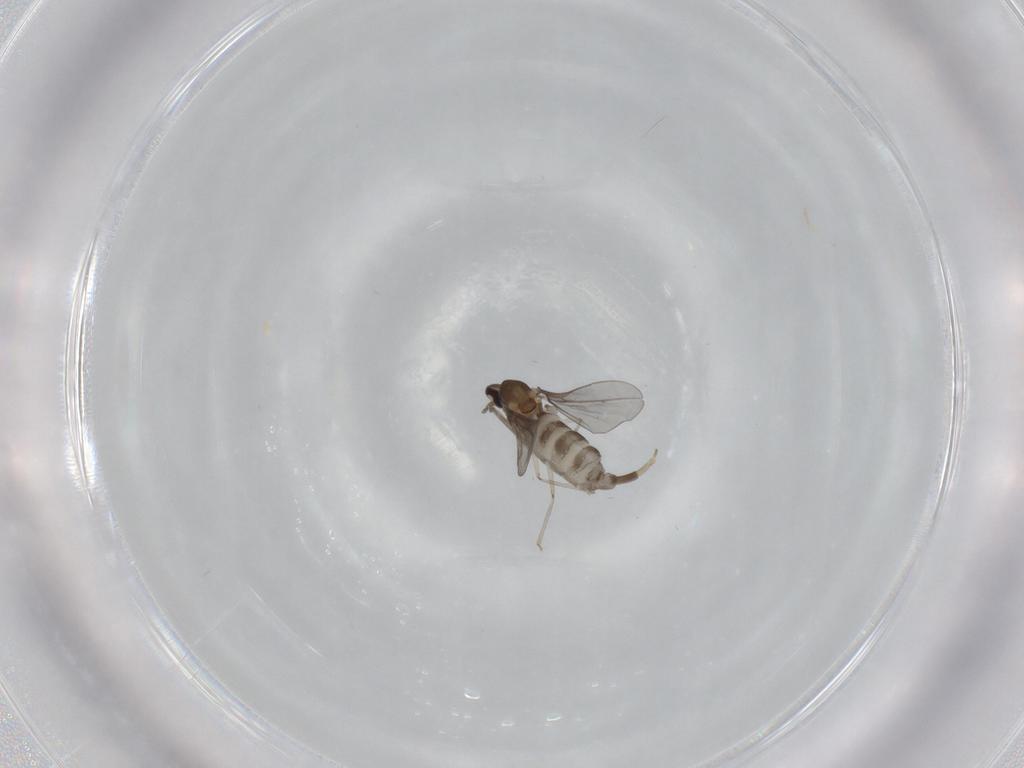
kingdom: Animalia
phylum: Arthropoda
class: Insecta
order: Diptera
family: Cecidomyiidae
